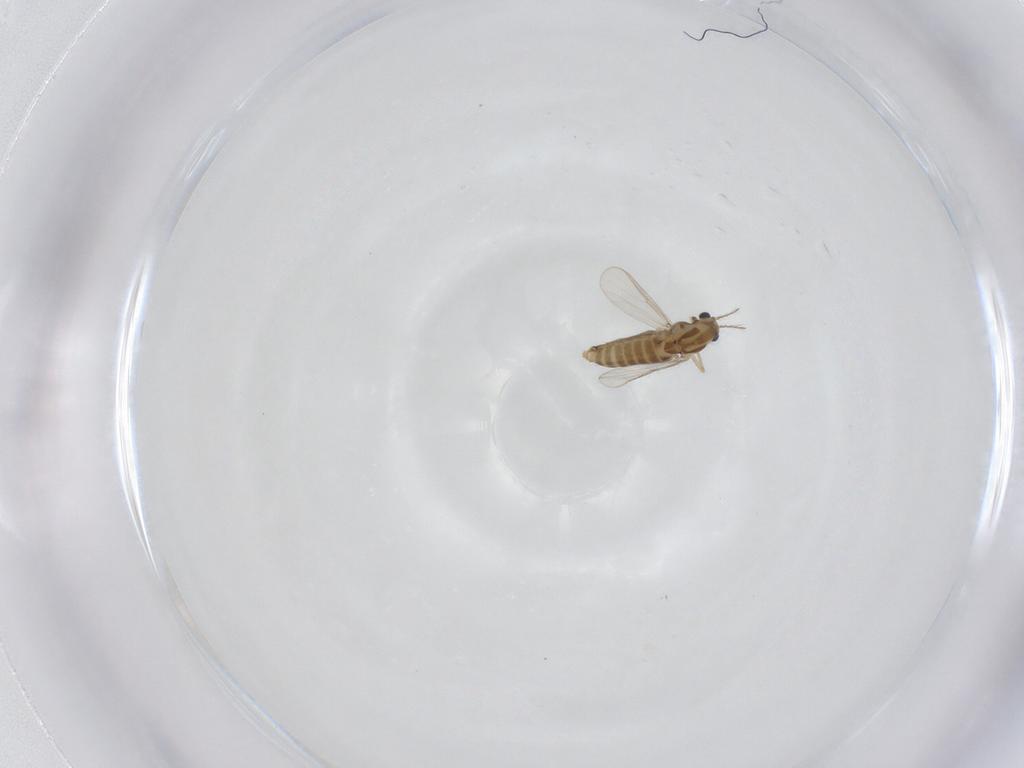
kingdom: Animalia
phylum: Arthropoda
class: Insecta
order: Diptera
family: Chironomidae
